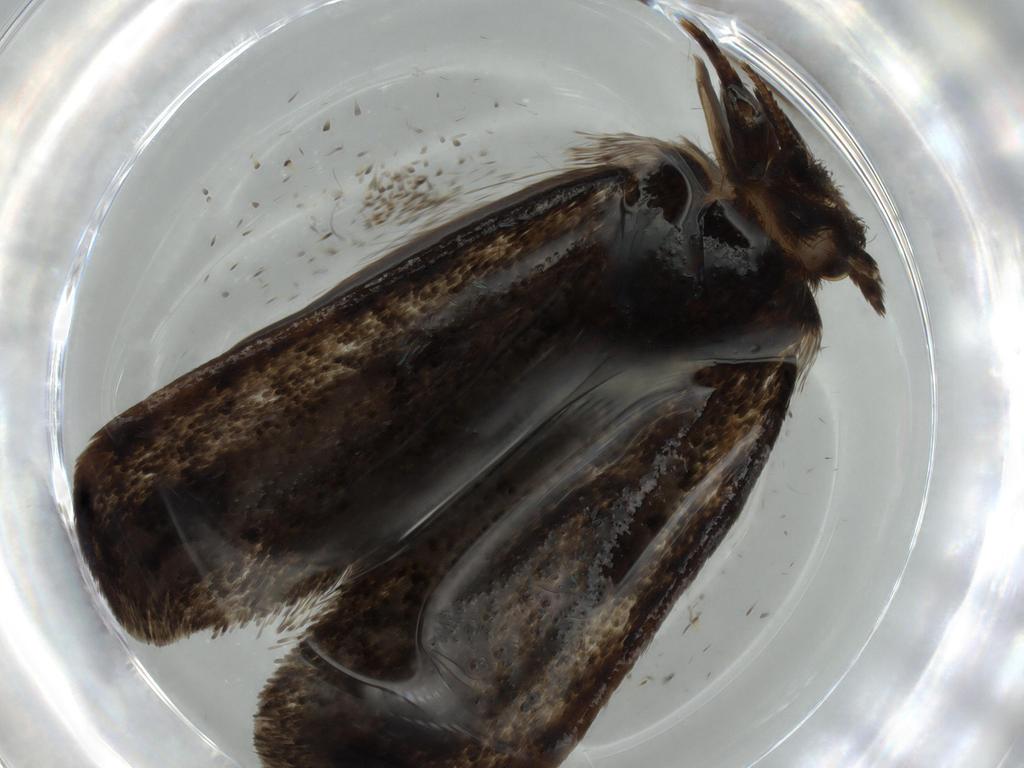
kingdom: Animalia
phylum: Arthropoda
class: Insecta
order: Lepidoptera
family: Tineidae
